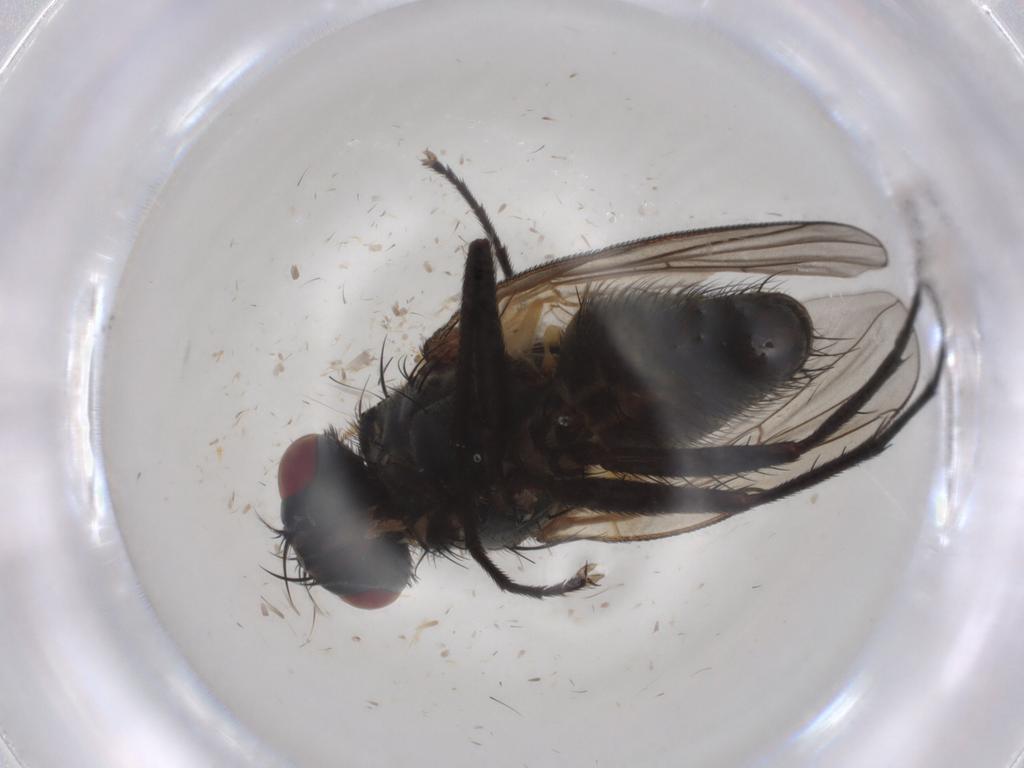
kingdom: Animalia
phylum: Arthropoda
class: Insecta
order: Diptera
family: Muscidae
